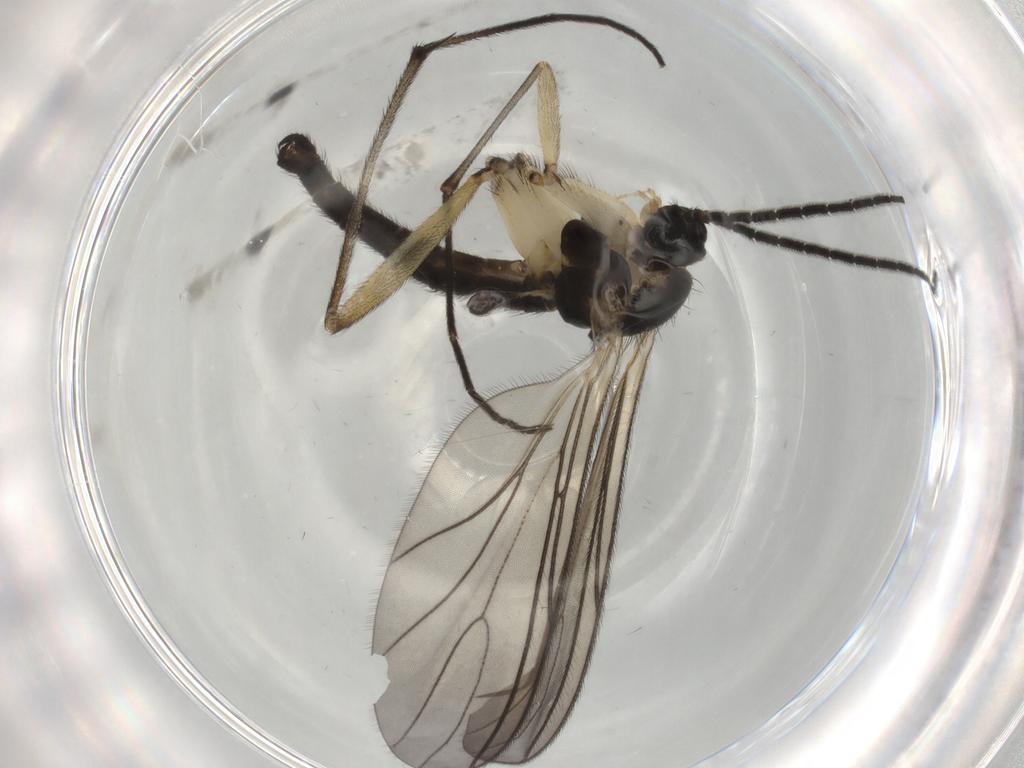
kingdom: Animalia
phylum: Arthropoda
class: Insecta
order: Diptera
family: Sciaridae
